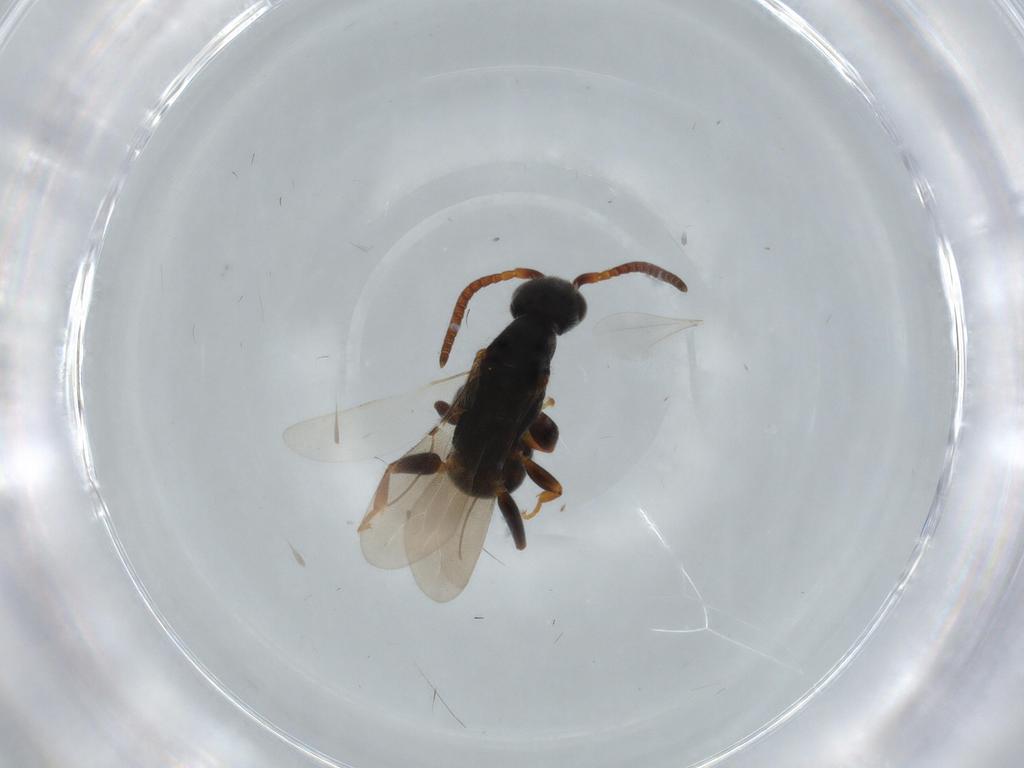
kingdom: Animalia
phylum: Arthropoda
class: Insecta
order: Hymenoptera
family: Bethylidae
